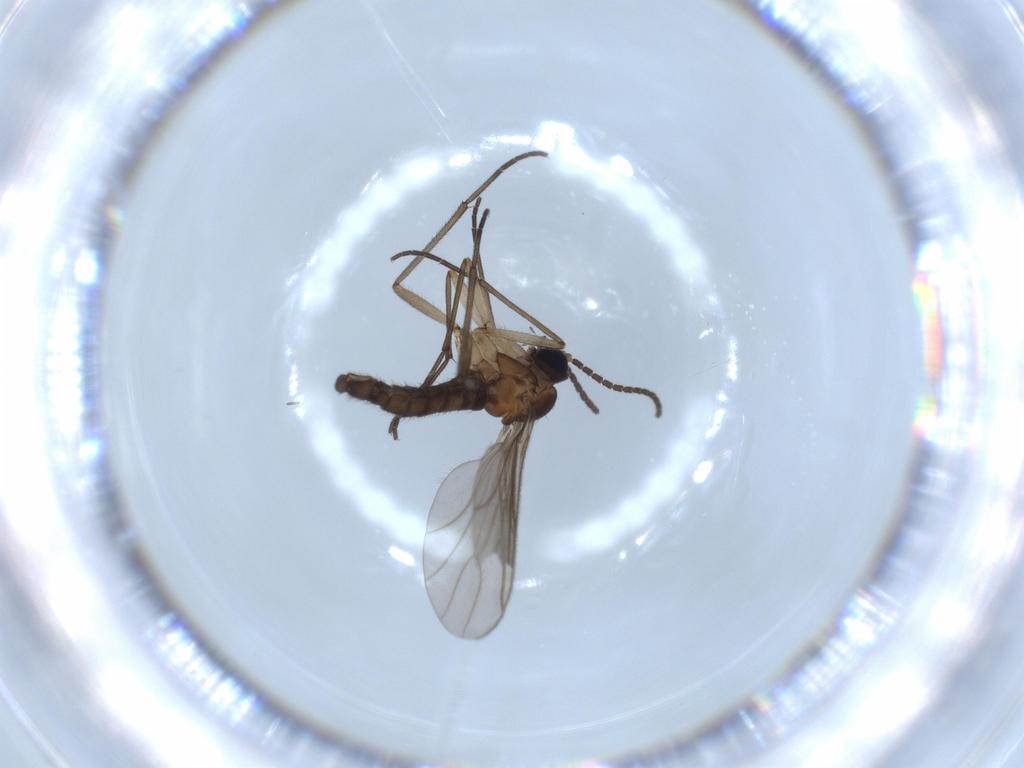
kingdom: Animalia
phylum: Arthropoda
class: Insecta
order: Diptera
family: Sciaridae
